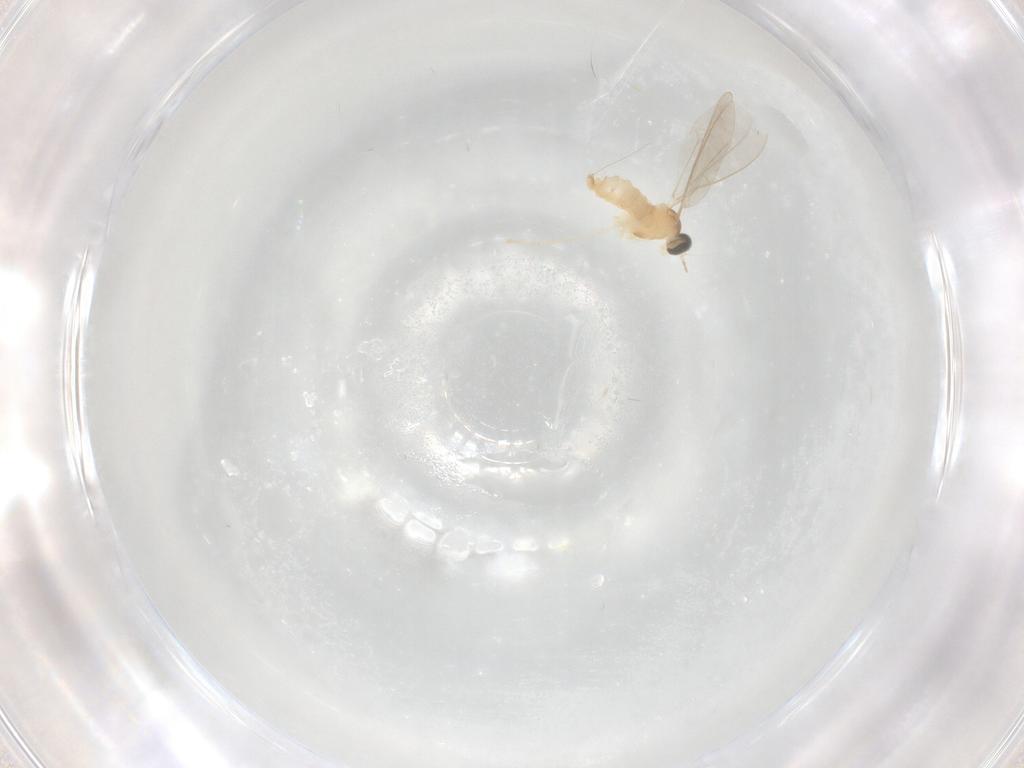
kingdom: Animalia
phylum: Arthropoda
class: Insecta
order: Diptera
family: Cecidomyiidae
